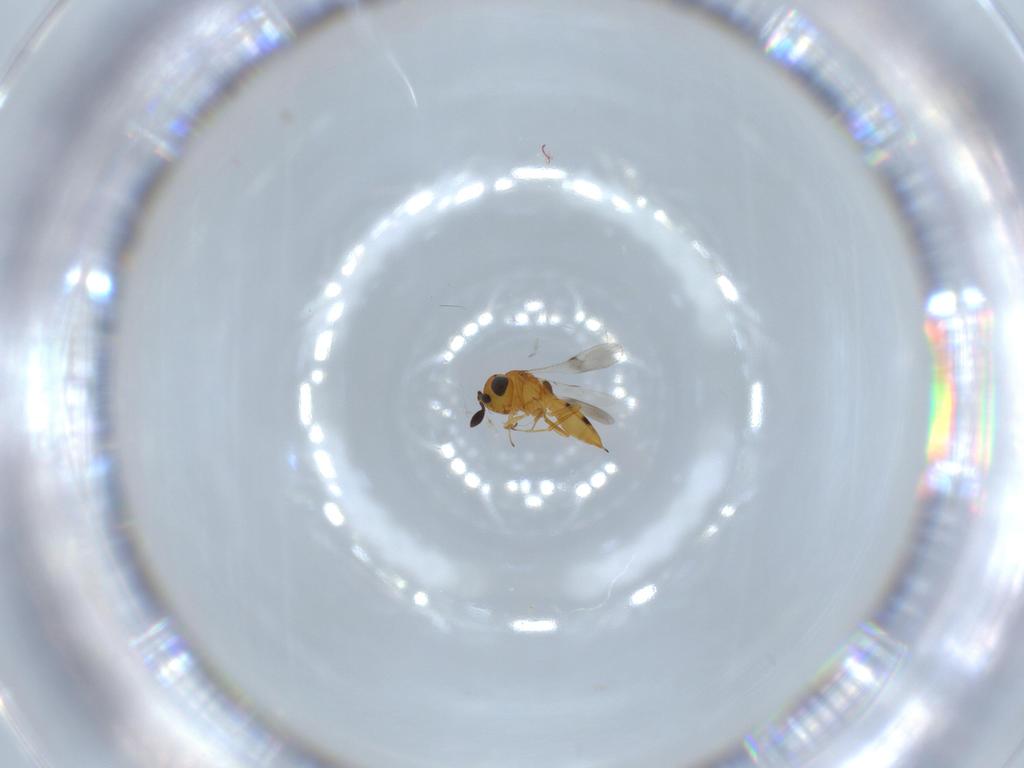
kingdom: Animalia
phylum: Arthropoda
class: Insecta
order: Hymenoptera
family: Scelionidae
